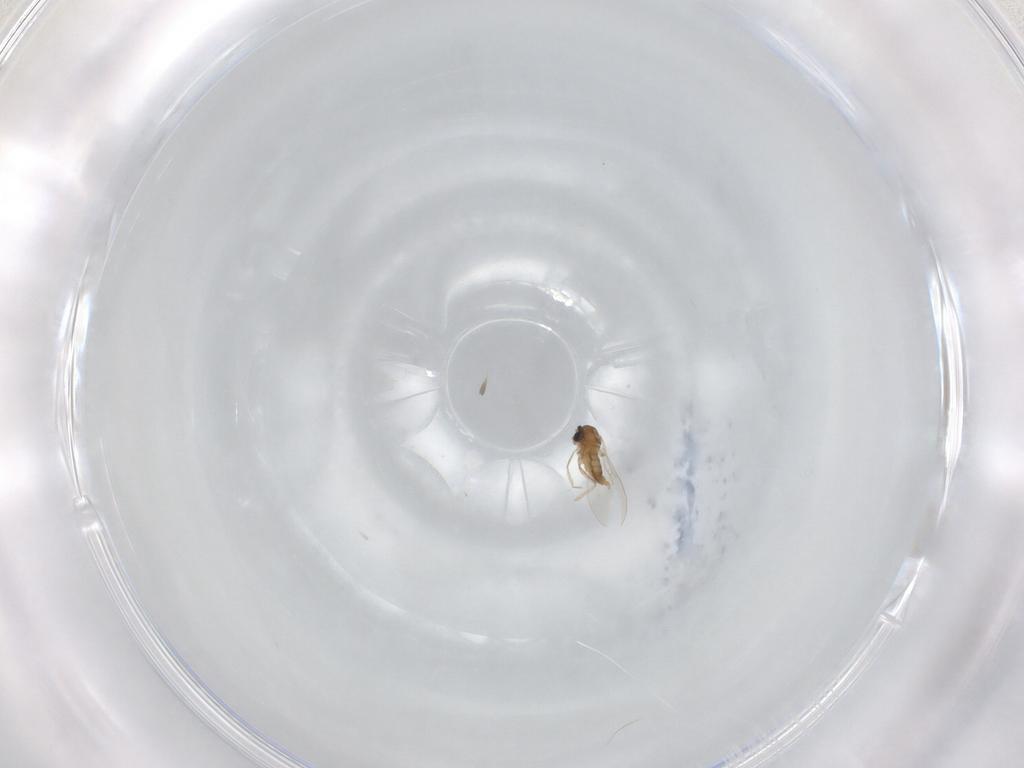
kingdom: Animalia
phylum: Arthropoda
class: Insecta
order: Diptera
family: Cecidomyiidae
